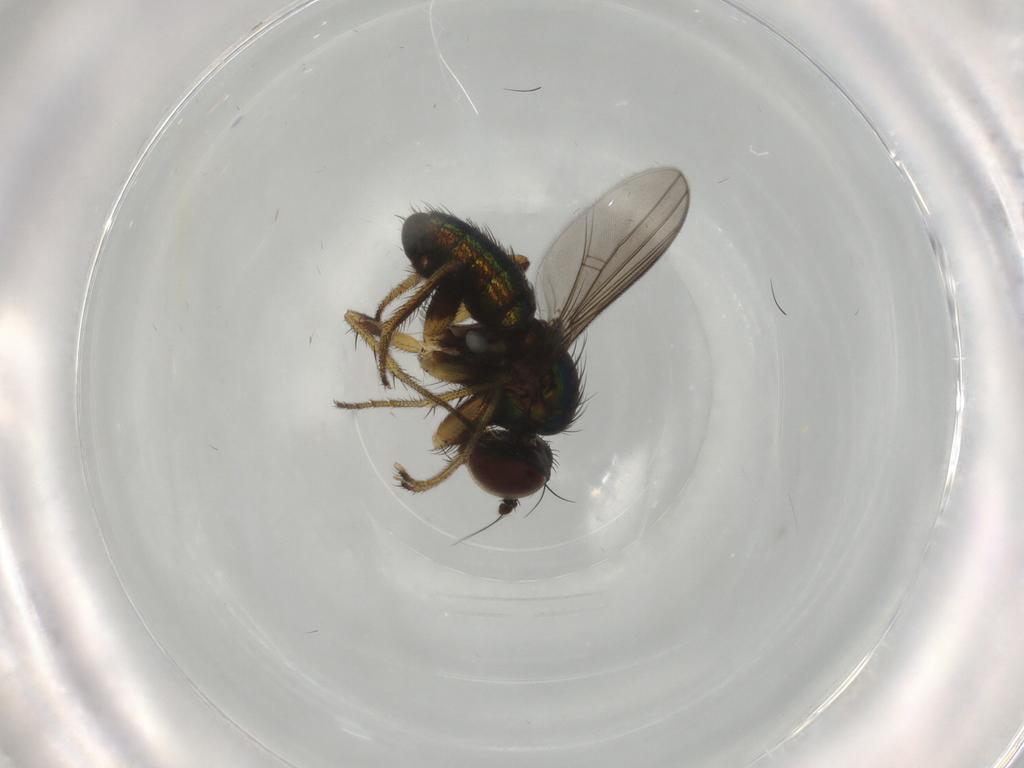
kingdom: Animalia
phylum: Arthropoda
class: Insecta
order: Diptera
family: Dolichopodidae
